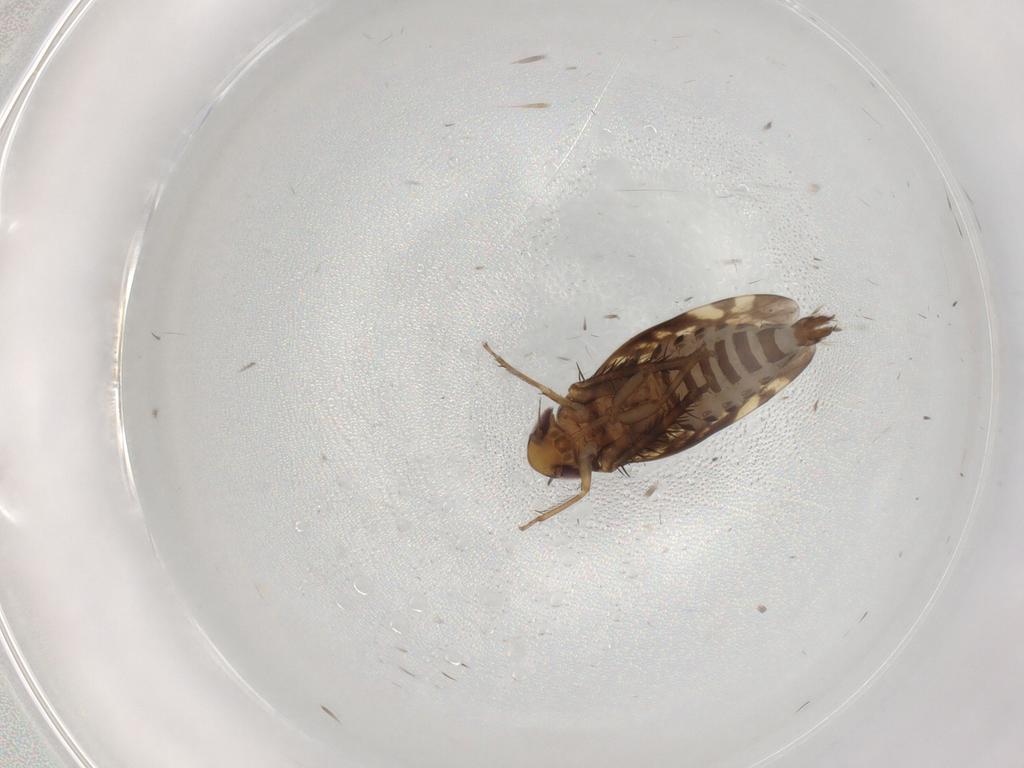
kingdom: Animalia
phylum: Arthropoda
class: Insecta
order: Hemiptera
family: Cicadellidae
